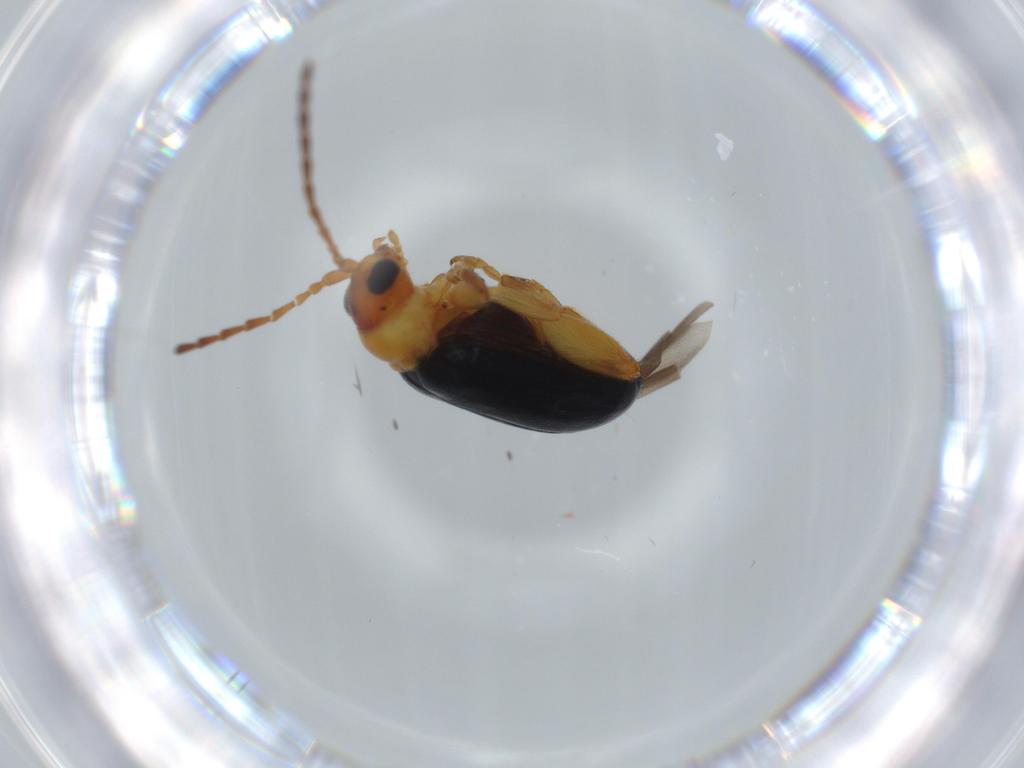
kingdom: Animalia
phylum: Arthropoda
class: Insecta
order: Coleoptera
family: Chrysomelidae
